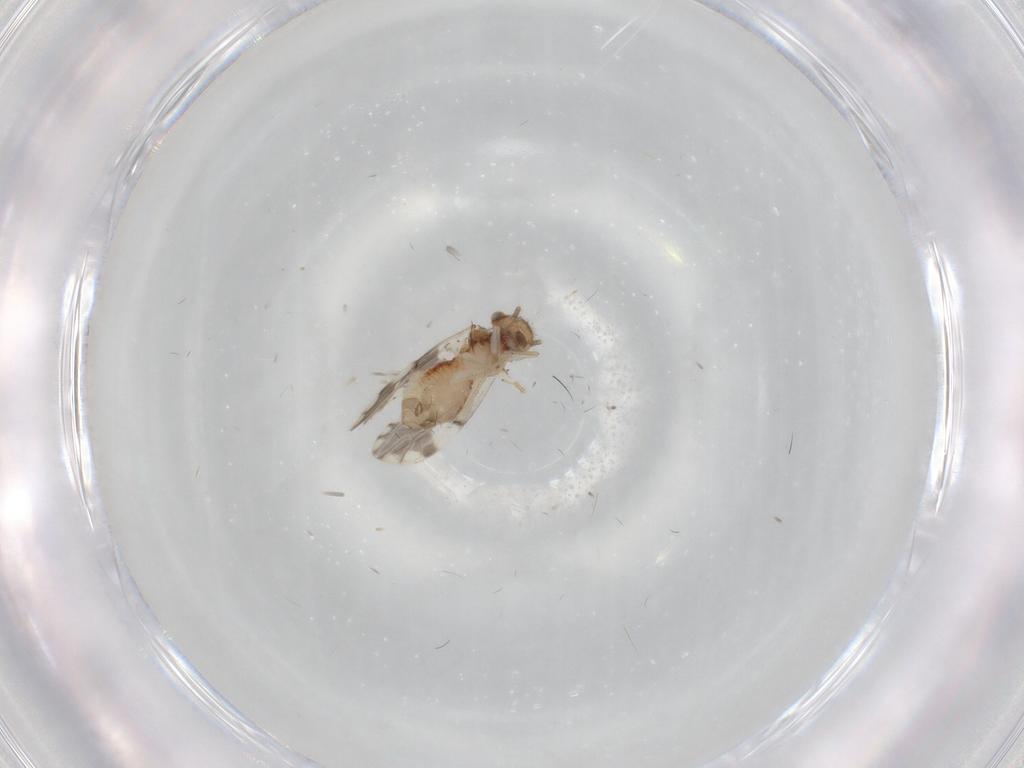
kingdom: Animalia
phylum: Arthropoda
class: Insecta
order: Psocodea
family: Ectopsocidae
